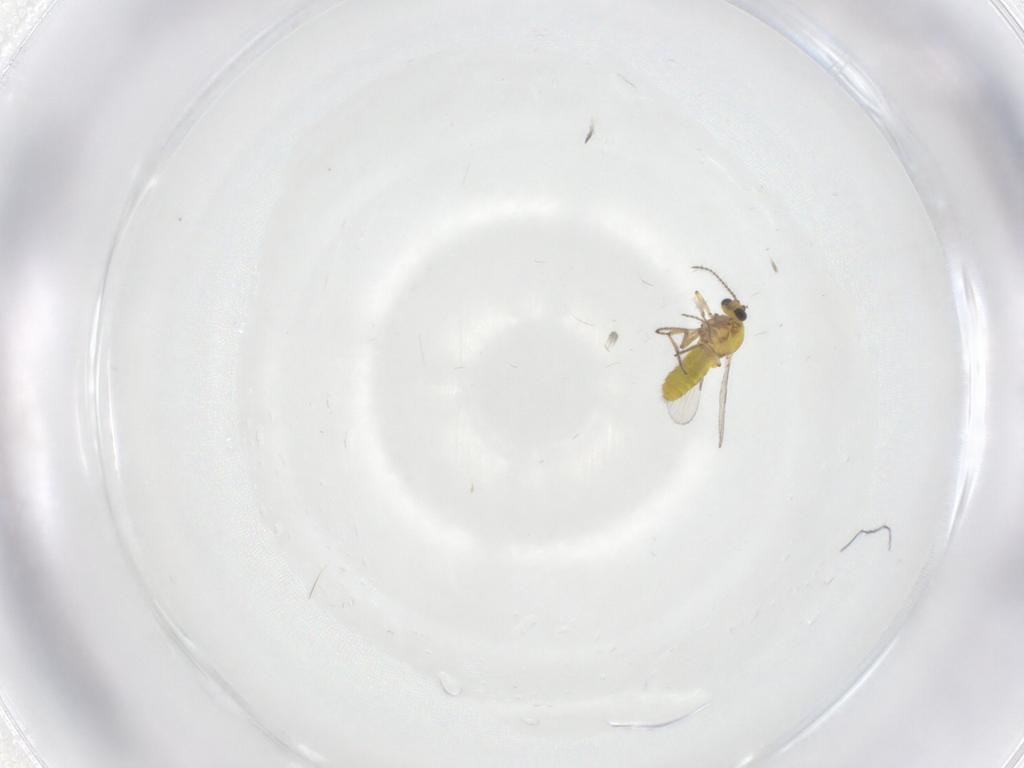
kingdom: Animalia
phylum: Arthropoda
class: Insecta
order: Diptera
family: Ceratopogonidae
